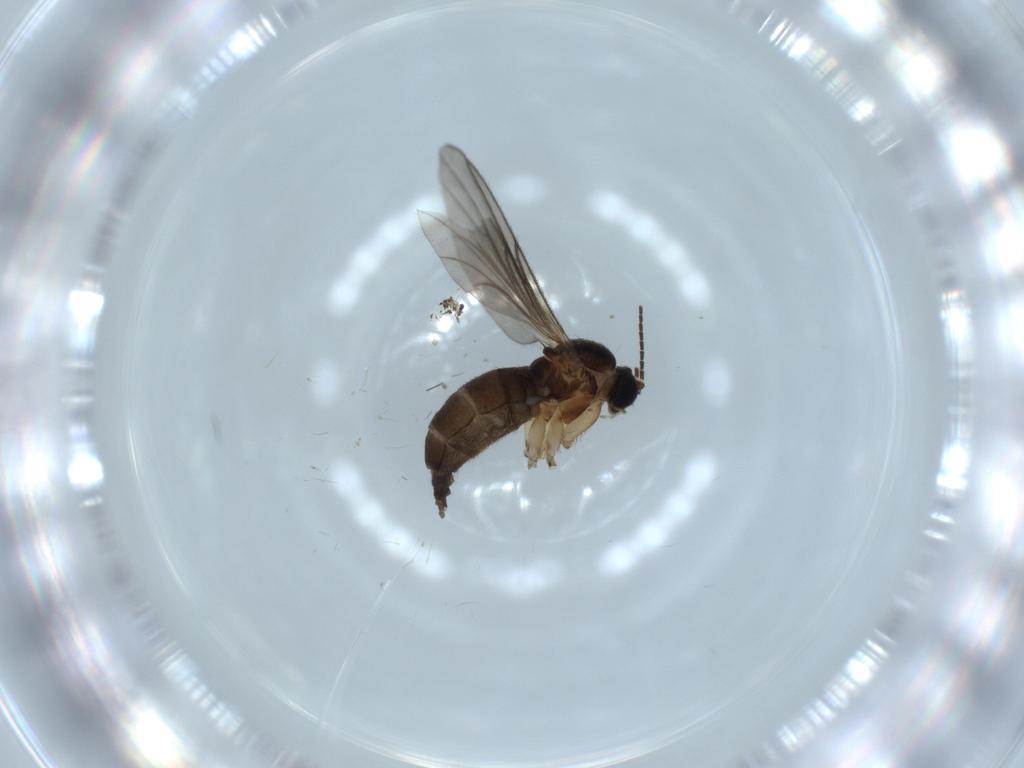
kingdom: Animalia
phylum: Arthropoda
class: Insecta
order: Diptera
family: Sciaridae
